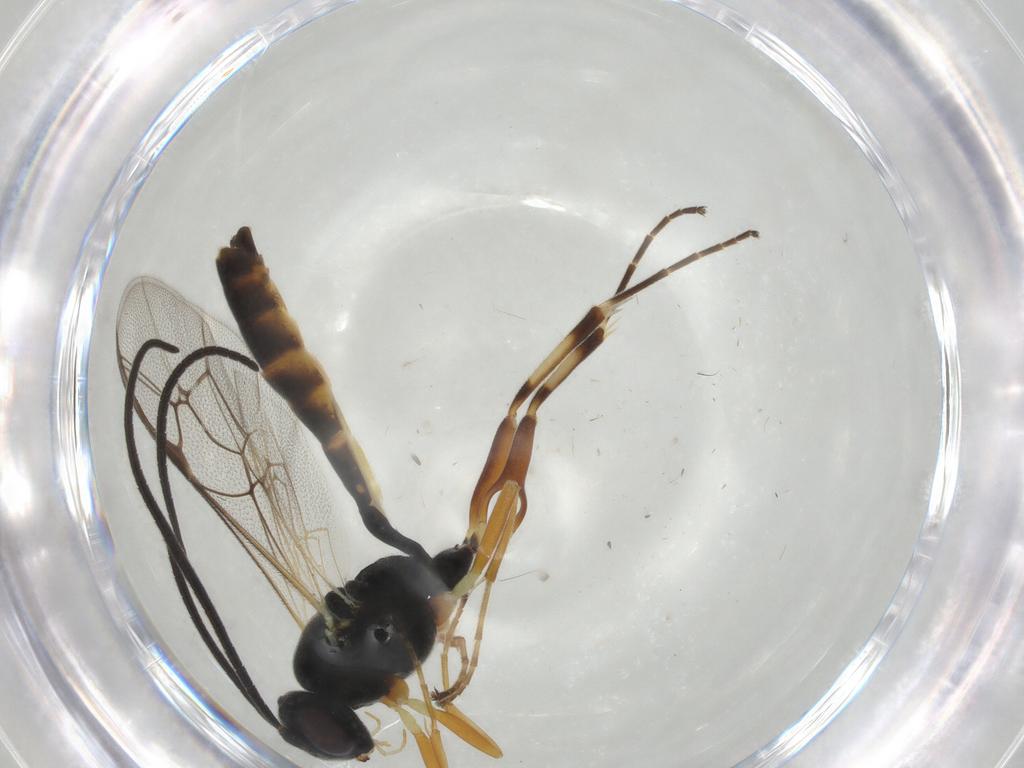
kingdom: Animalia
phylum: Arthropoda
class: Insecta
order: Hymenoptera
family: Ichneumonidae
